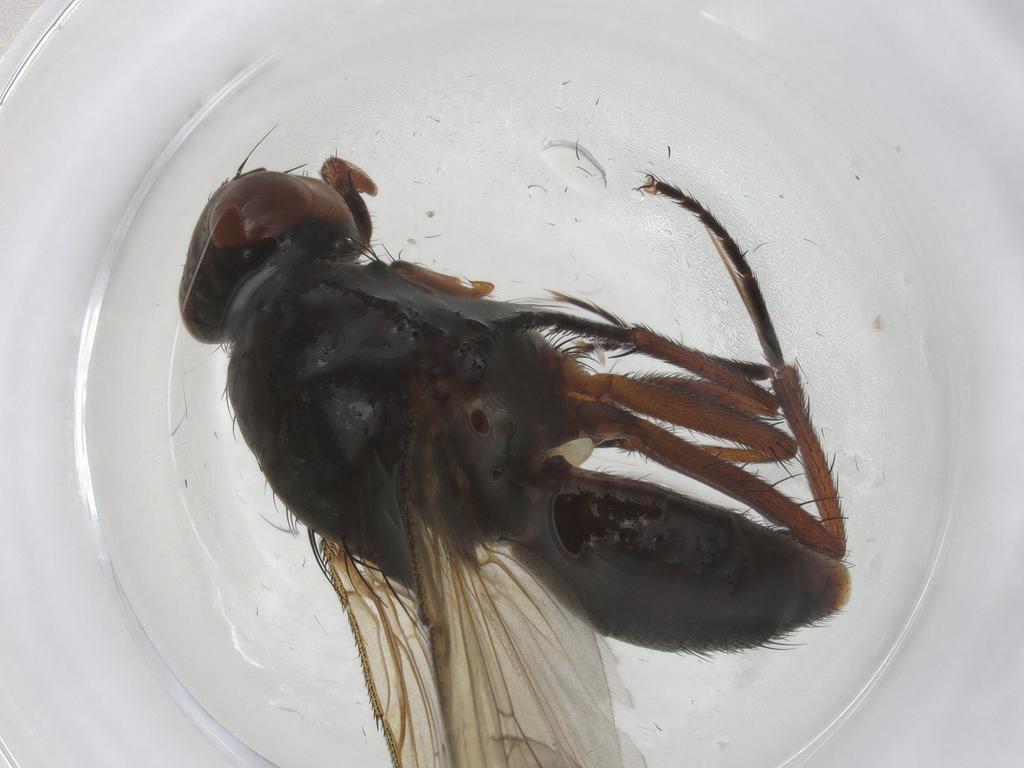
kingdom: Animalia
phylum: Arthropoda
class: Insecta
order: Diptera
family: Anthomyiidae
